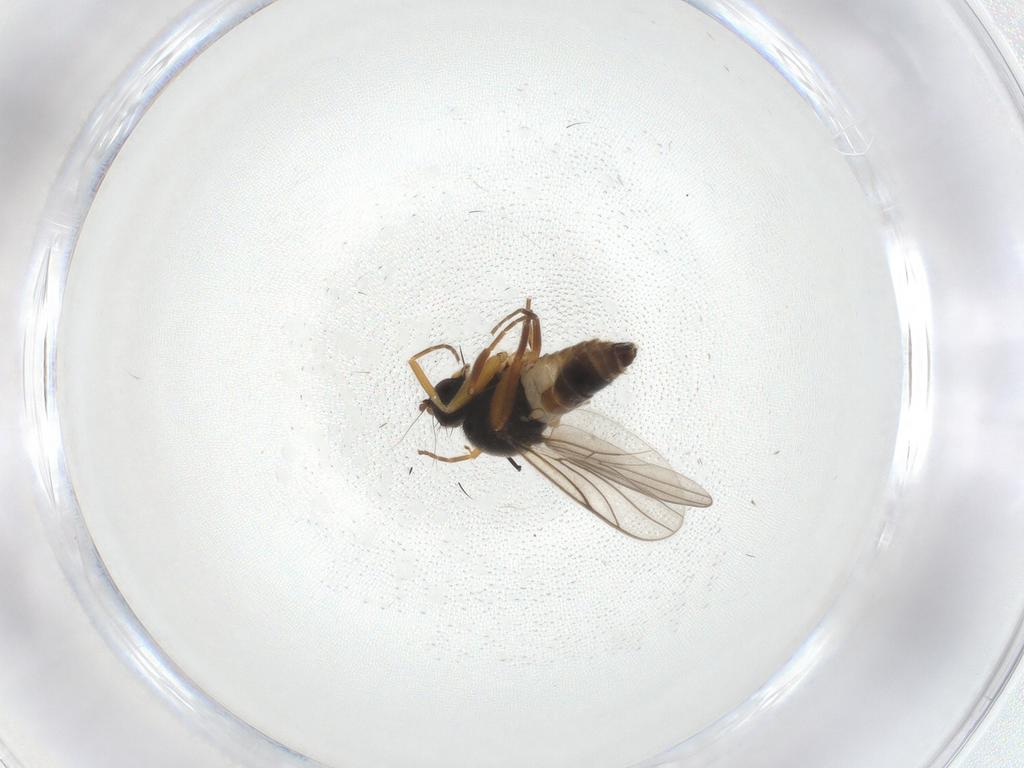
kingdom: Animalia
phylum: Arthropoda
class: Insecta
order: Diptera
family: Hybotidae
